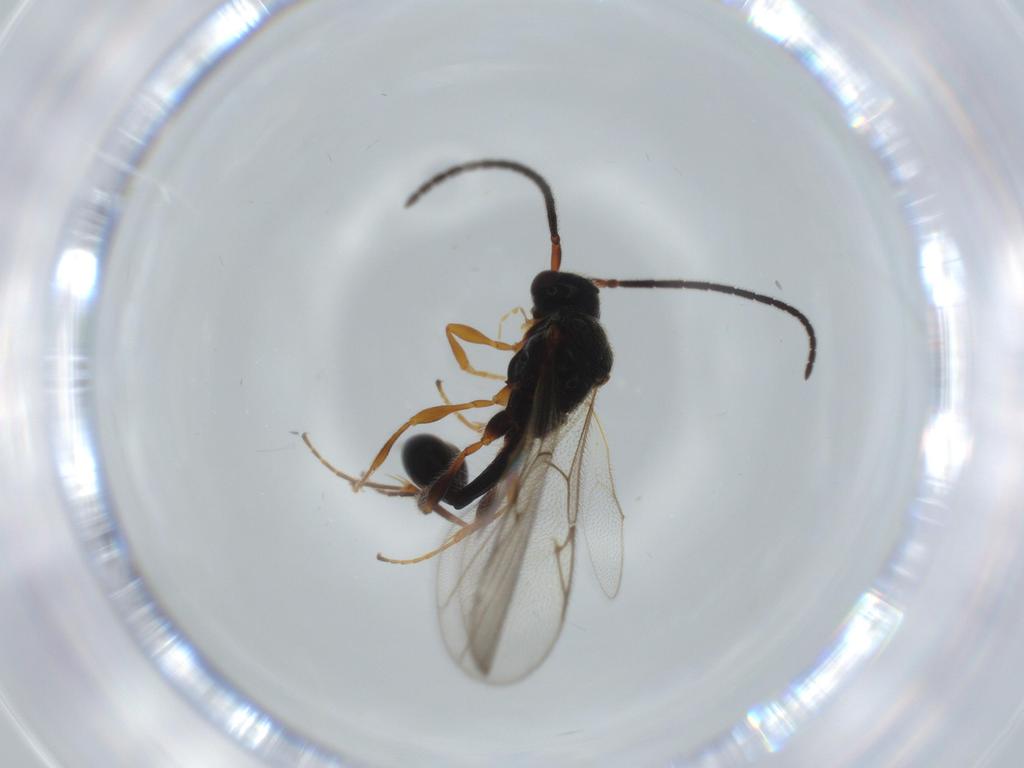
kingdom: Animalia
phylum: Arthropoda
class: Insecta
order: Hymenoptera
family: Diapriidae
